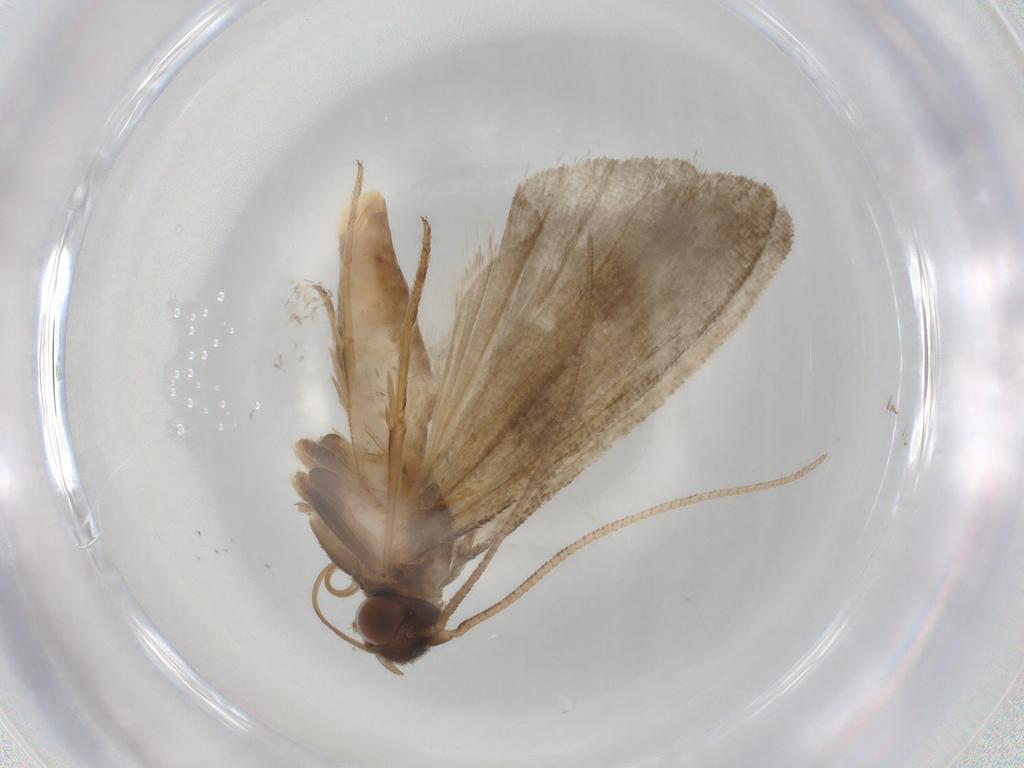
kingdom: Animalia
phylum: Arthropoda
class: Insecta
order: Lepidoptera
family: Noctuidae
